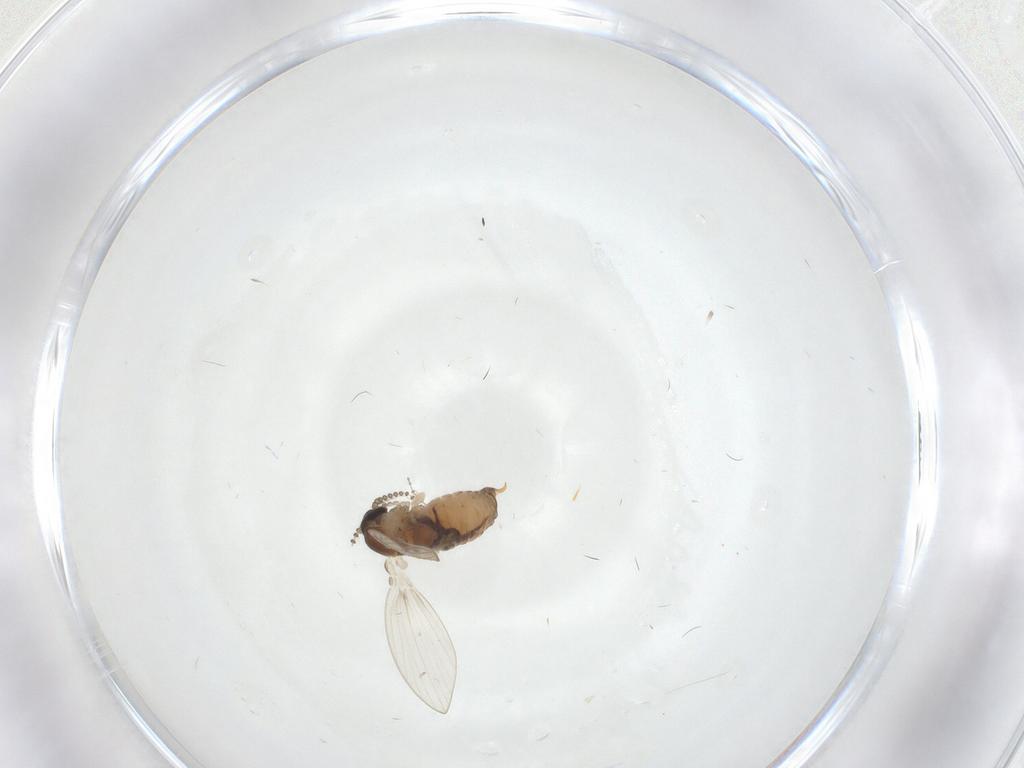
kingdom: Animalia
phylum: Arthropoda
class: Insecta
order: Diptera
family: Psychodidae
